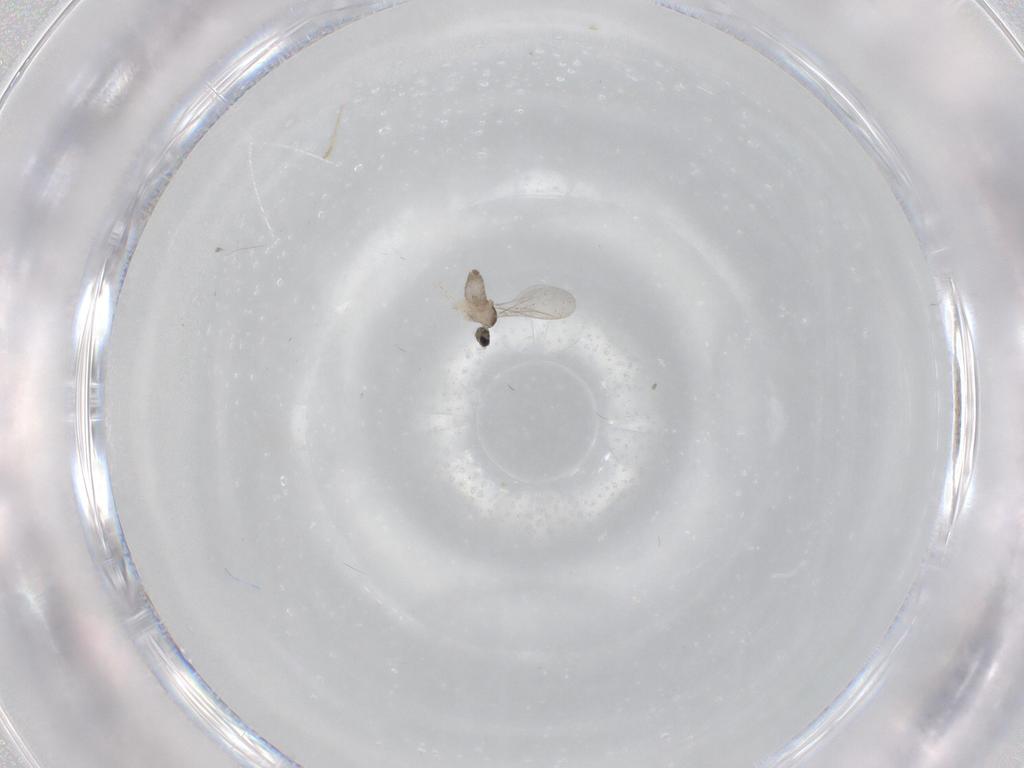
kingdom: Animalia
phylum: Arthropoda
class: Insecta
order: Diptera
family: Cecidomyiidae
